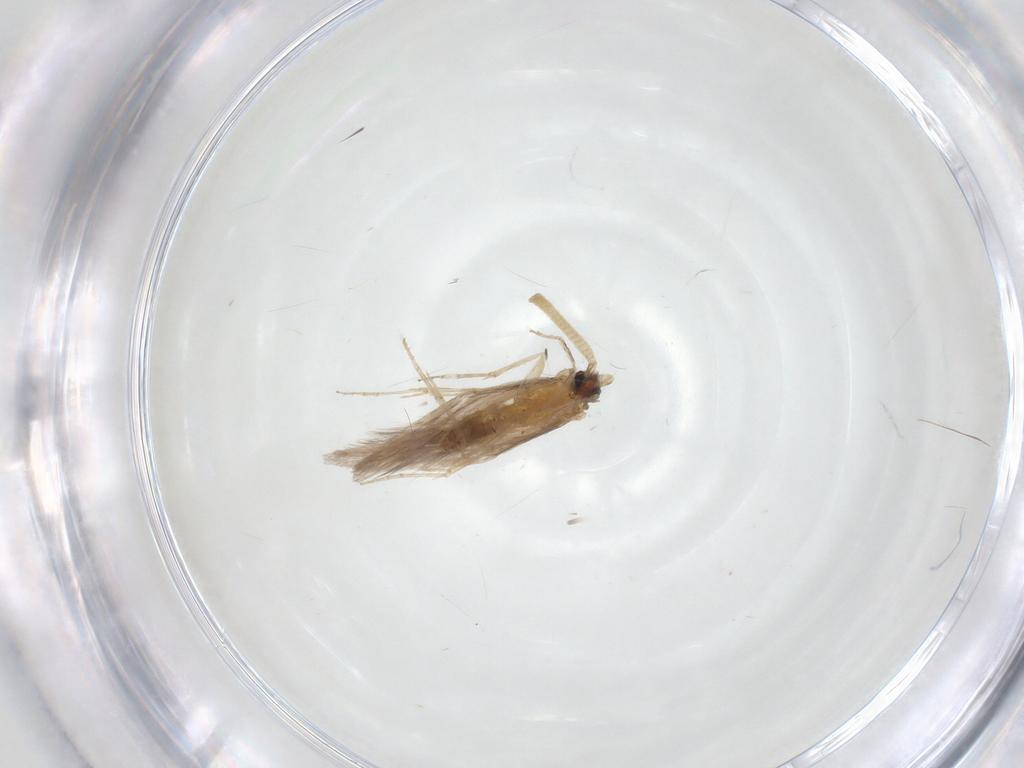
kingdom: Animalia
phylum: Arthropoda
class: Insecta
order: Trichoptera
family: Hydroptilidae
